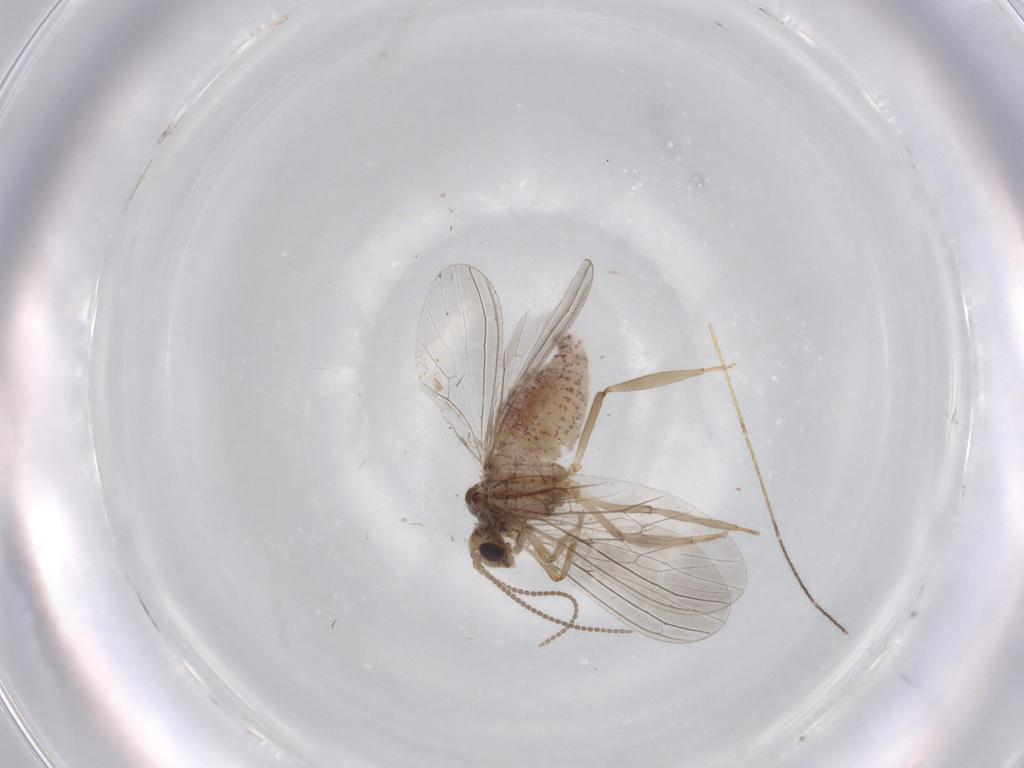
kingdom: Animalia
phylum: Arthropoda
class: Insecta
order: Neuroptera
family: Coniopterygidae
